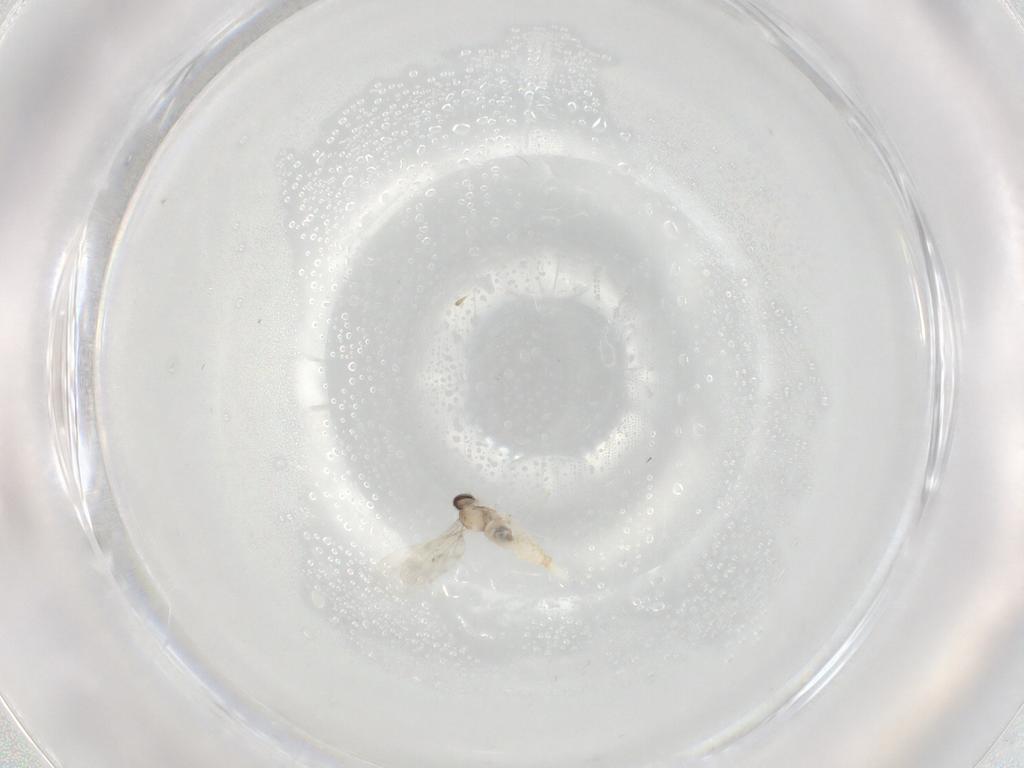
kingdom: Animalia
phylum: Arthropoda
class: Insecta
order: Diptera
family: Cecidomyiidae
